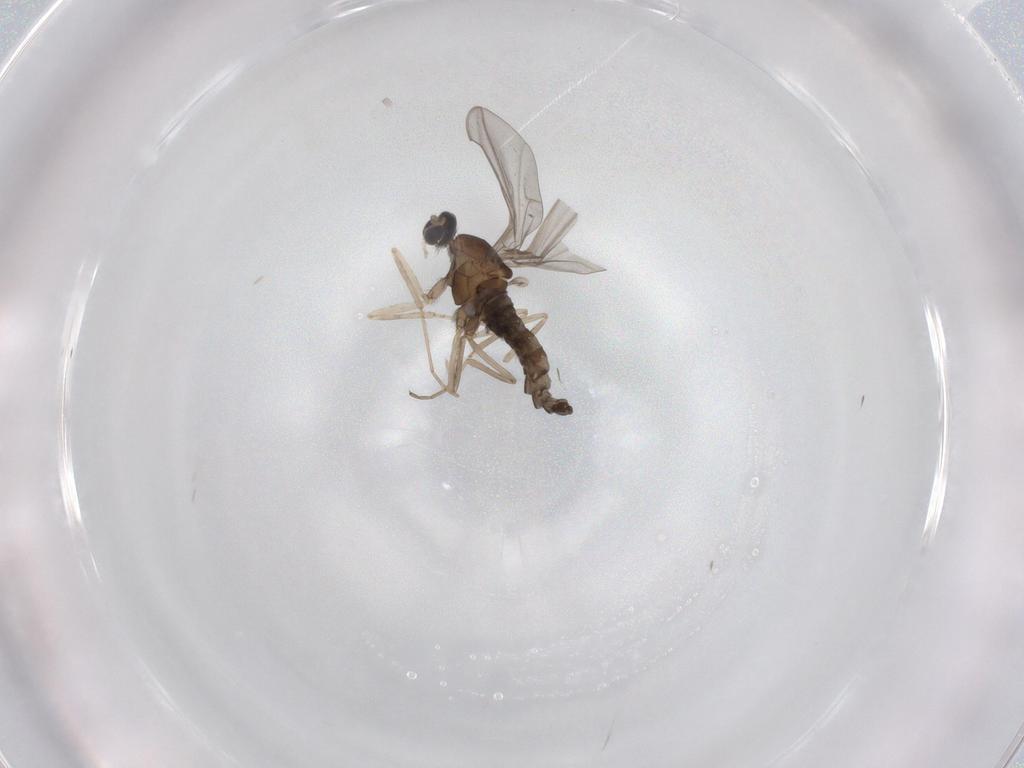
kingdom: Animalia
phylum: Arthropoda
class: Insecta
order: Diptera
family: Cecidomyiidae
